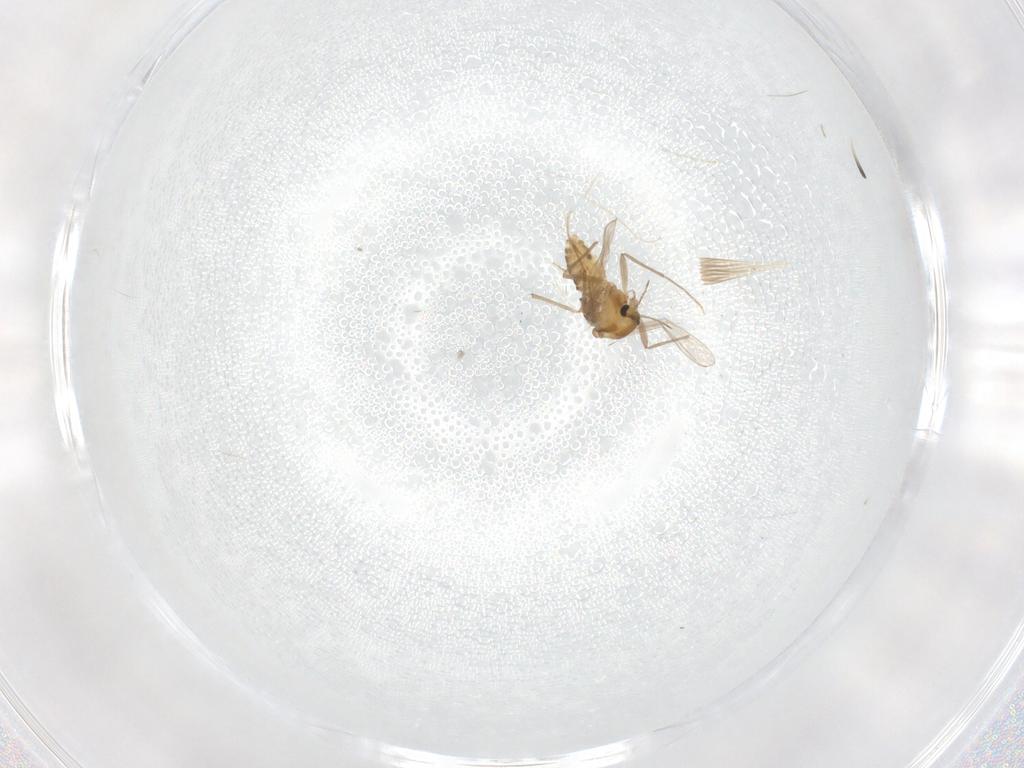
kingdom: Animalia
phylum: Arthropoda
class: Insecta
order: Diptera
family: Chironomidae
